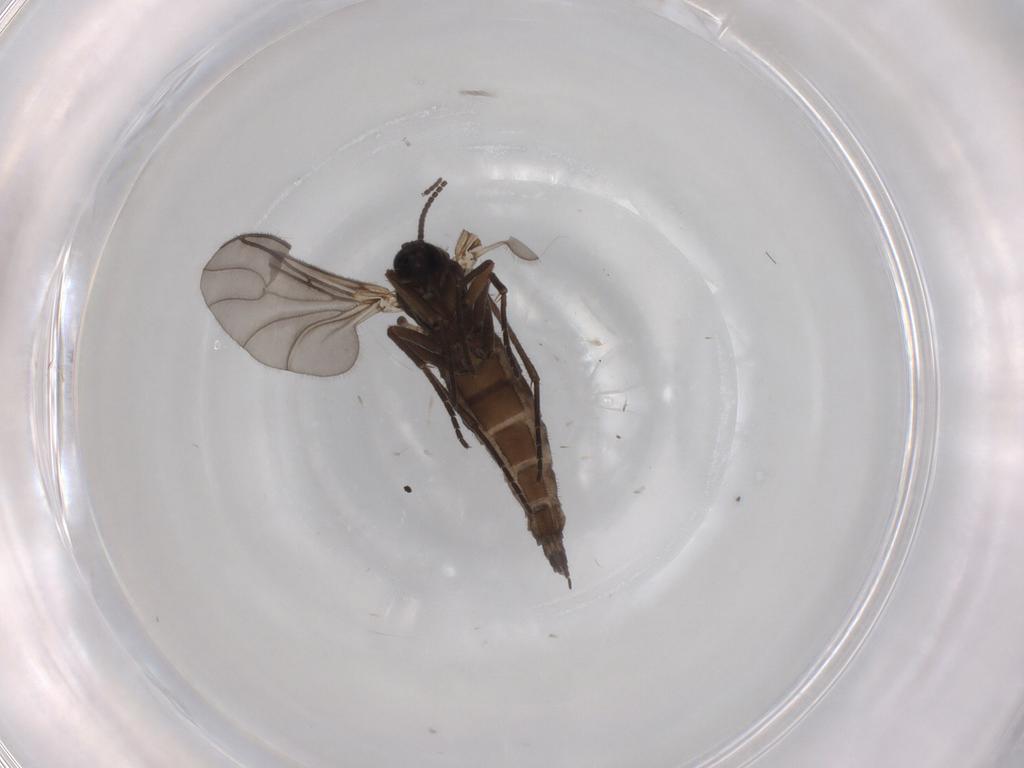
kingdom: Animalia
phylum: Arthropoda
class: Insecta
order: Diptera
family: Sciaridae
